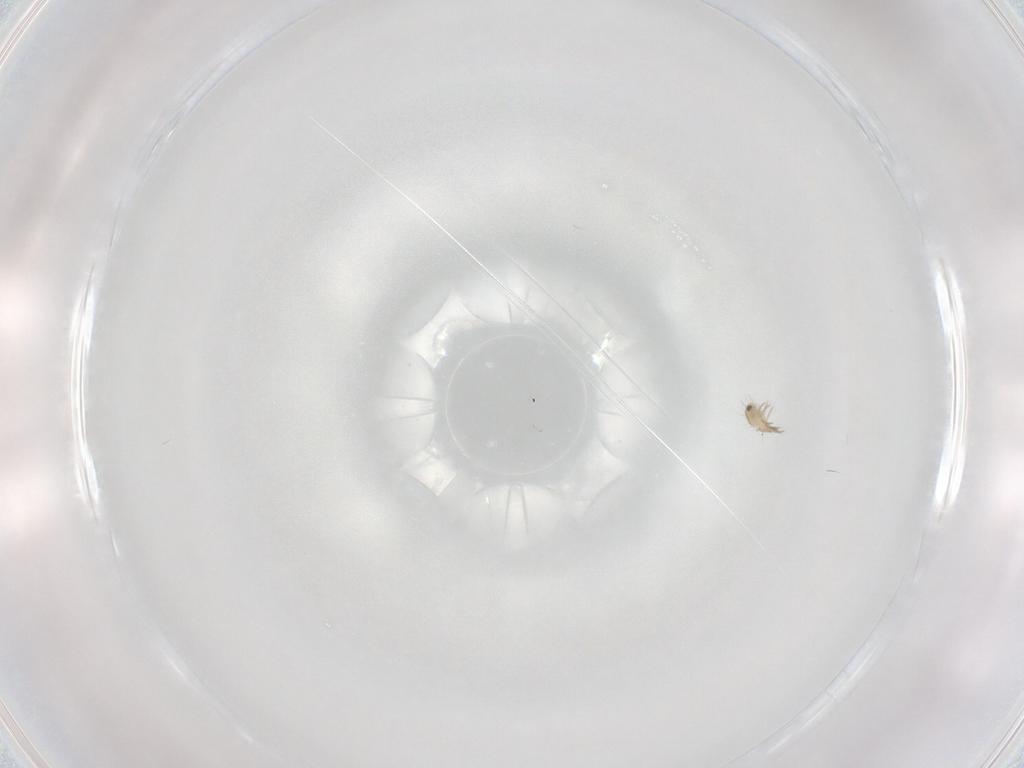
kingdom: Animalia
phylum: Arthropoda
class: Arachnida
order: Sarcoptiformes
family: Humerobatidae
